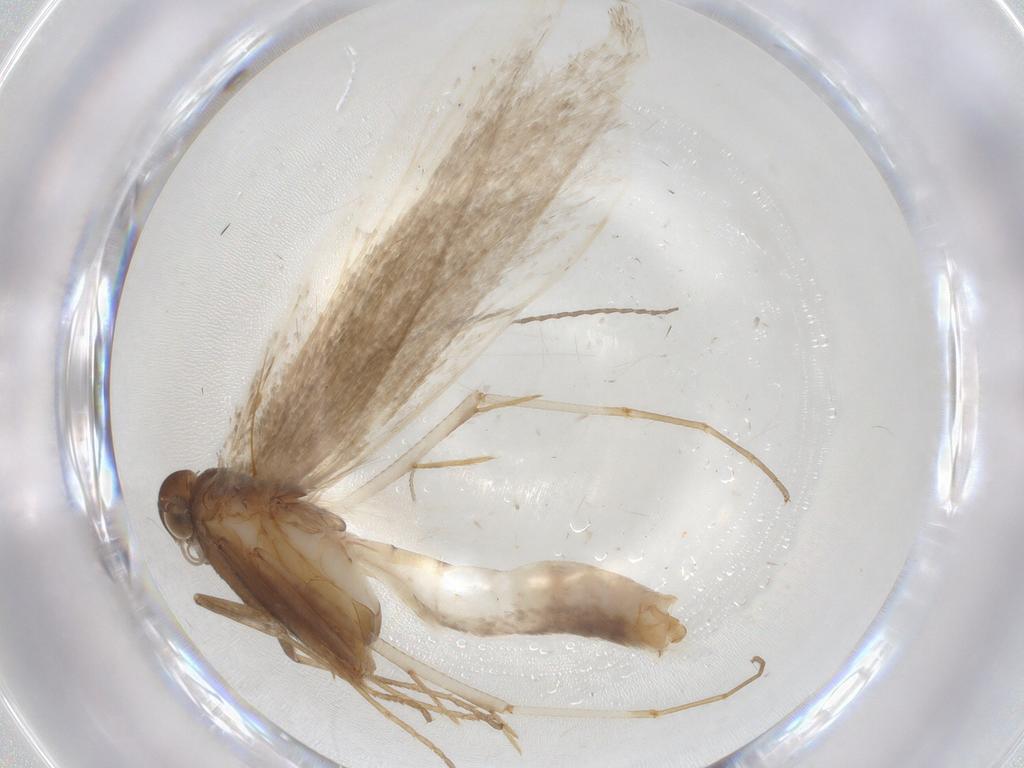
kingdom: Animalia
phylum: Arthropoda
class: Insecta
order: Lepidoptera
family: Gelechiidae
